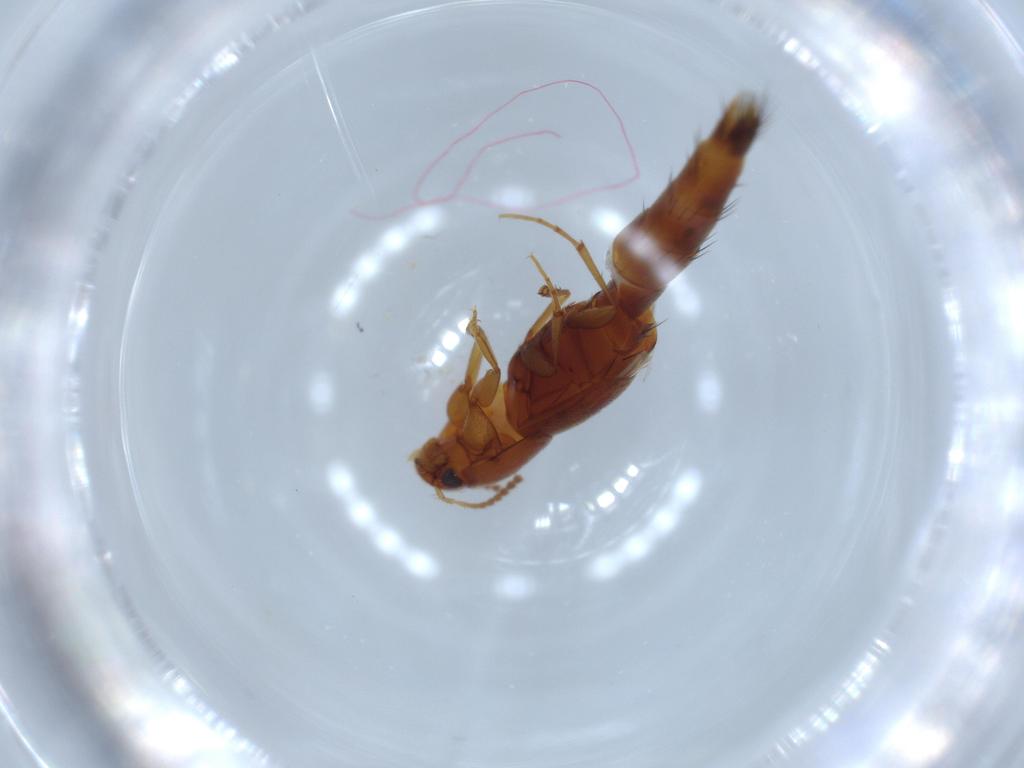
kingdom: Animalia
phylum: Arthropoda
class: Insecta
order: Coleoptera
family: Staphylinidae
